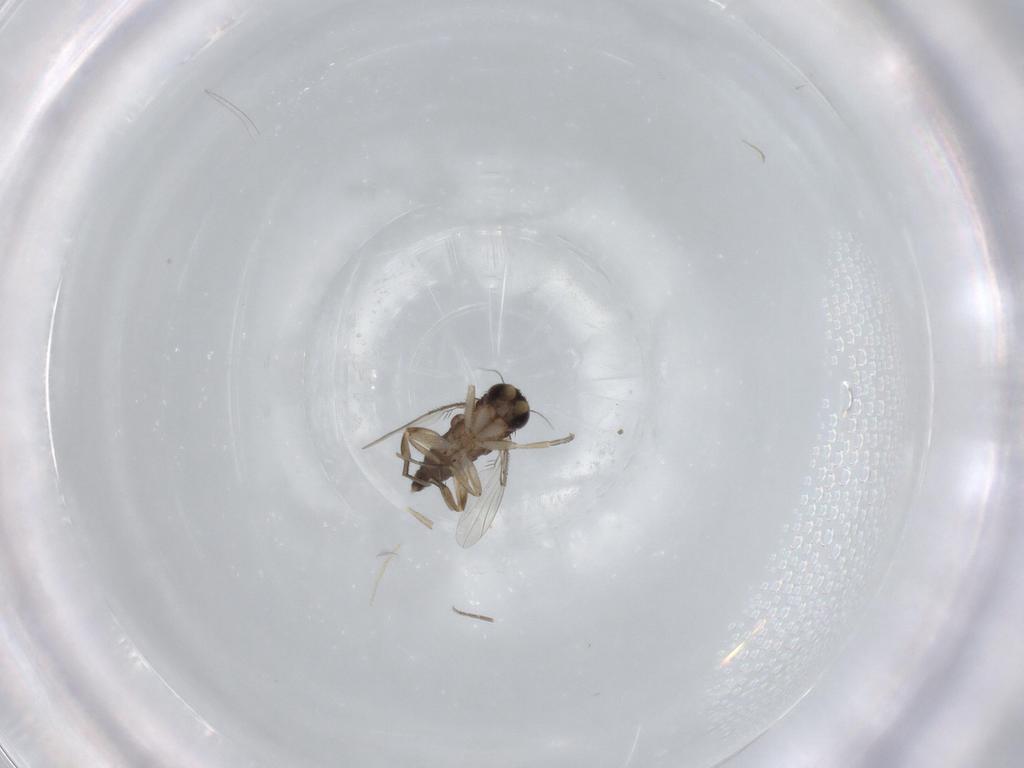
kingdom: Animalia
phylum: Arthropoda
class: Insecta
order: Diptera
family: Phoridae
